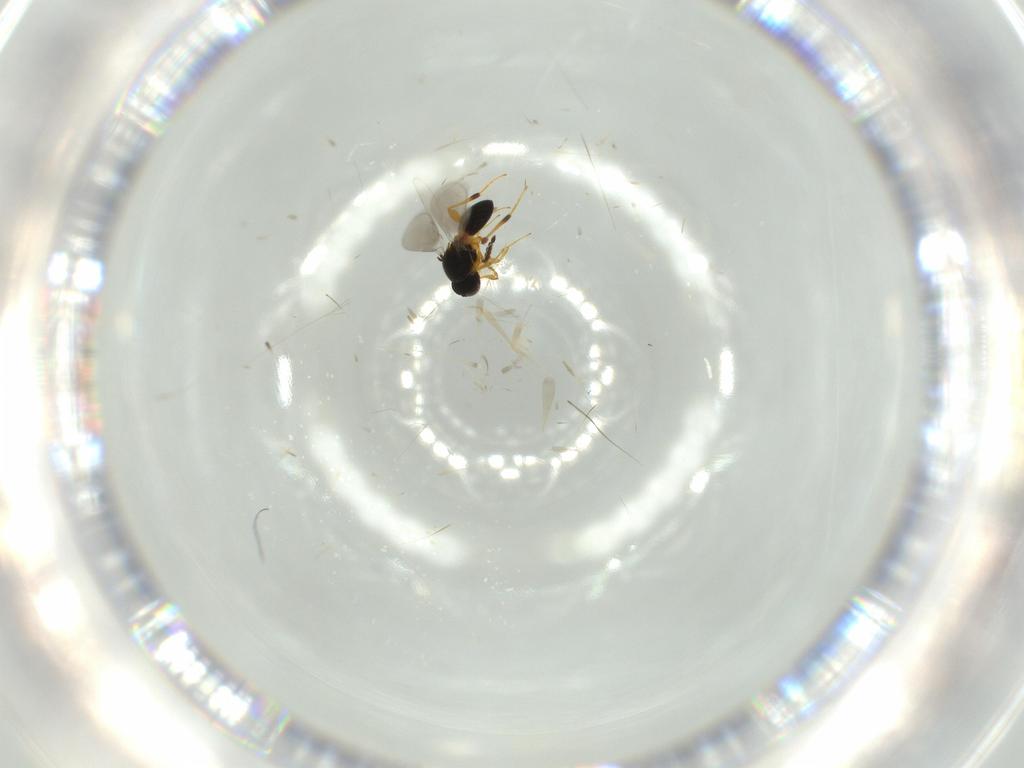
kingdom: Animalia
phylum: Arthropoda
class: Insecta
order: Hymenoptera
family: Platygastridae
